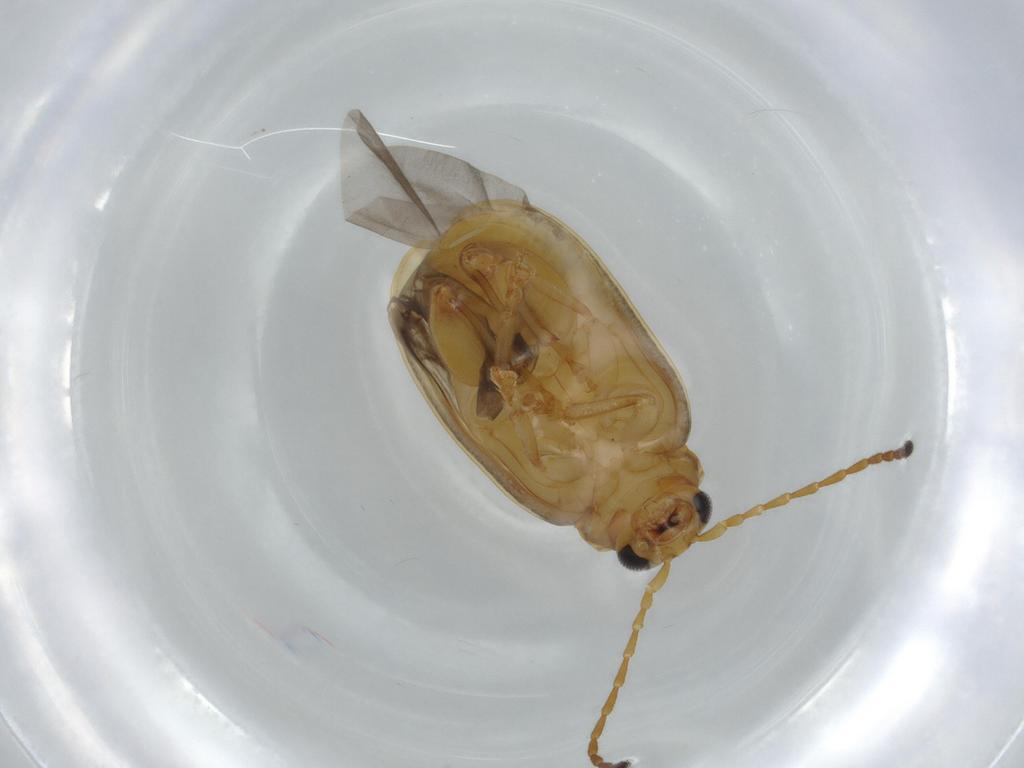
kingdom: Animalia
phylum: Arthropoda
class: Insecta
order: Coleoptera
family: Chrysomelidae
